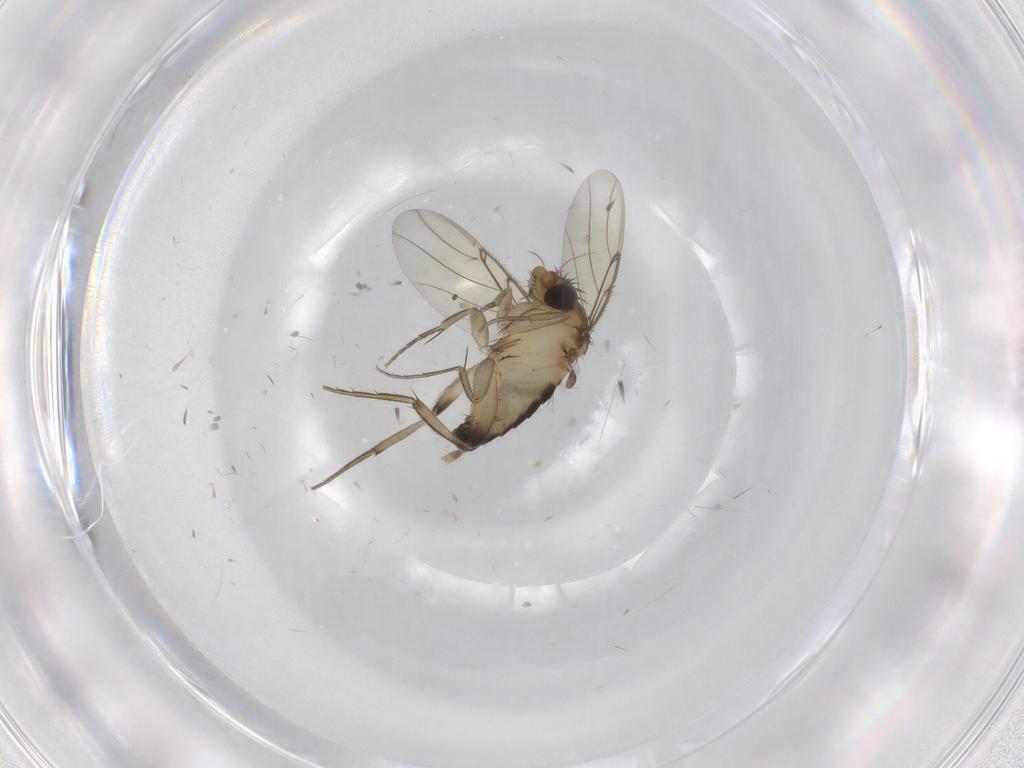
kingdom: Animalia
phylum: Arthropoda
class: Insecta
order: Diptera
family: Phoridae
